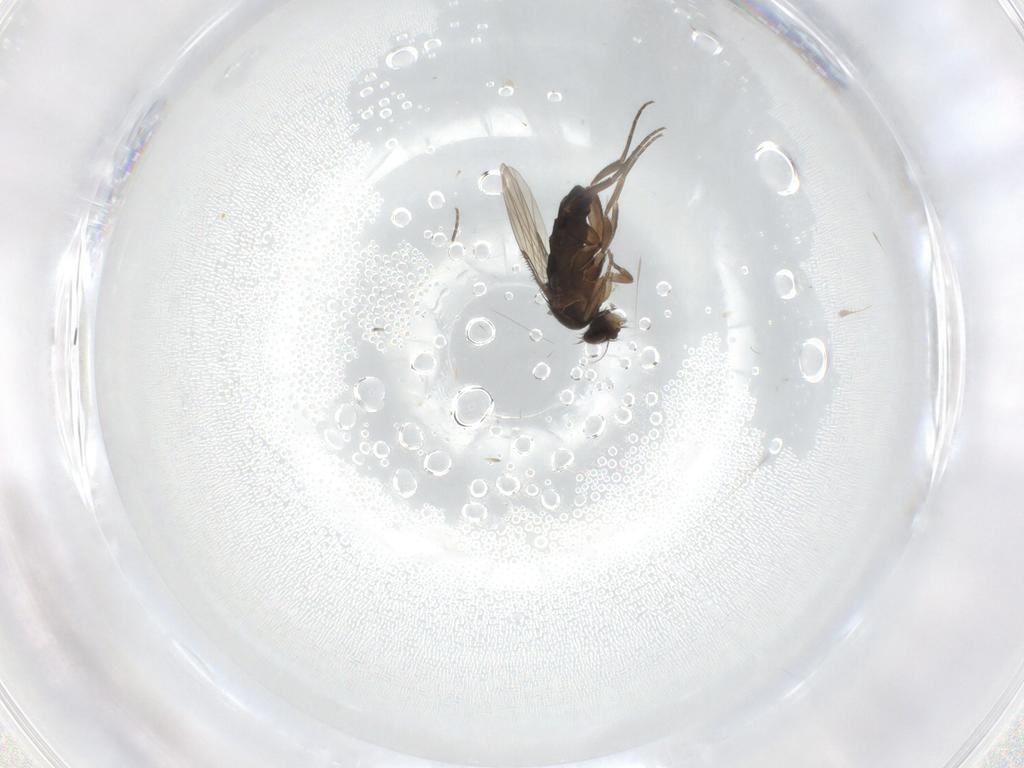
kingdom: Animalia
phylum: Arthropoda
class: Insecta
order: Diptera
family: Phoridae
